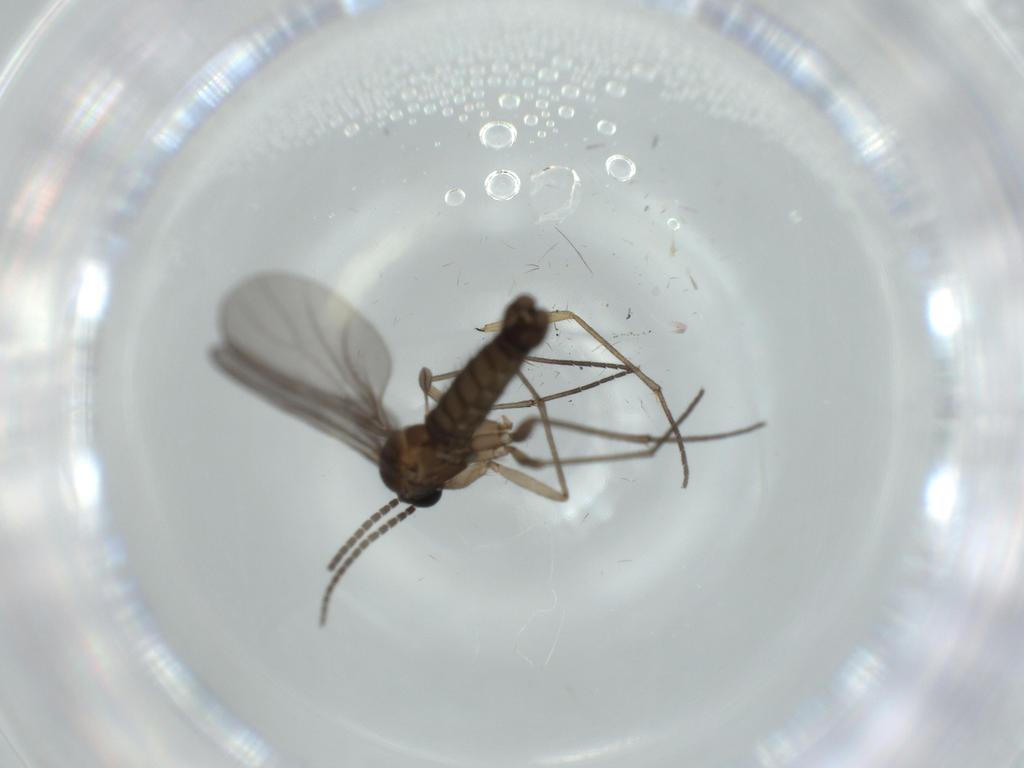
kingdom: Animalia
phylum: Arthropoda
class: Insecta
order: Diptera
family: Sciaridae
